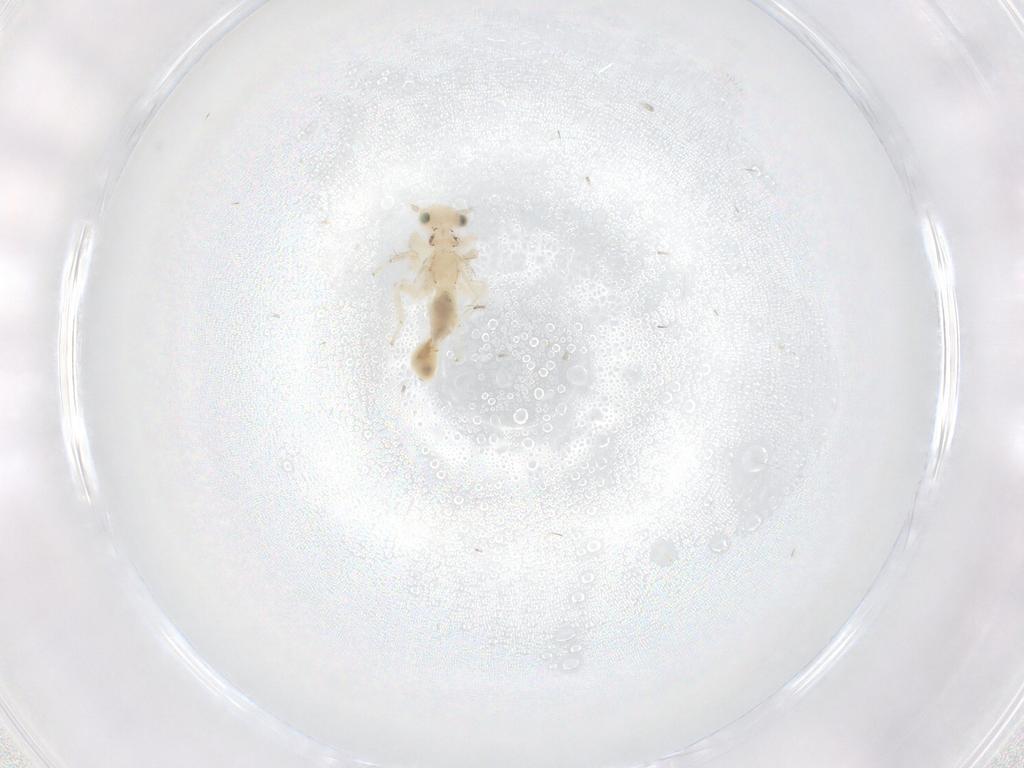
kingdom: Animalia
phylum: Arthropoda
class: Insecta
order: Psocodea
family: Lepidopsocidae
